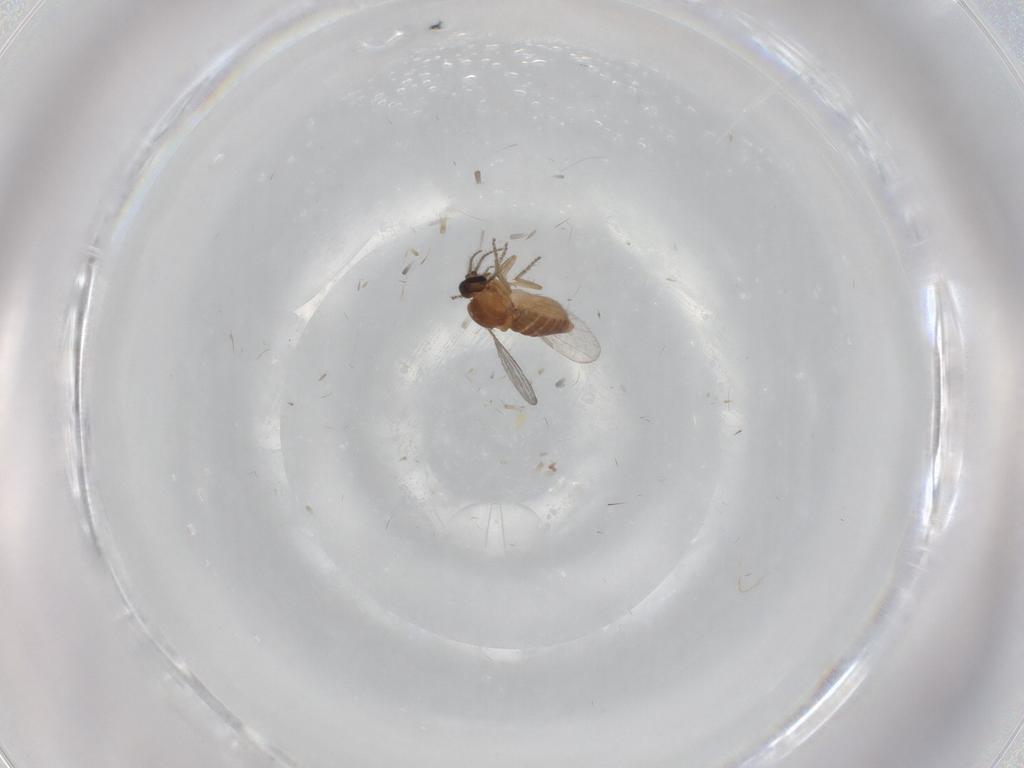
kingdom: Animalia
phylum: Arthropoda
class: Insecta
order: Diptera
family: Ceratopogonidae
